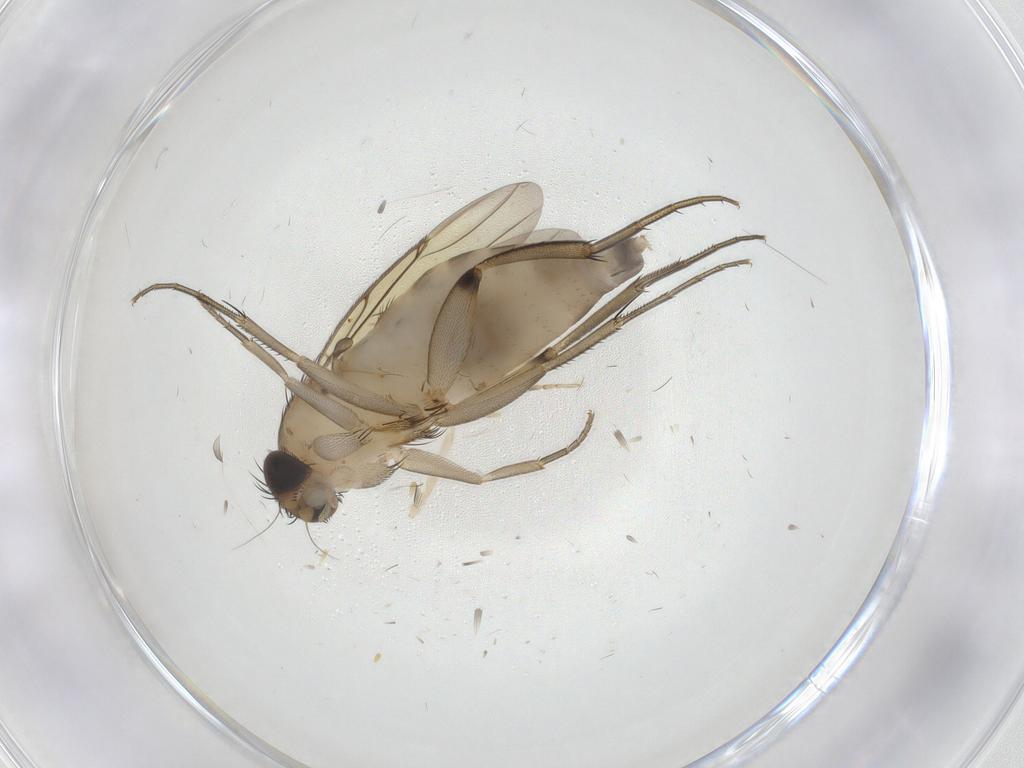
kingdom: Animalia
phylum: Arthropoda
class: Insecta
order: Diptera
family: Phoridae
